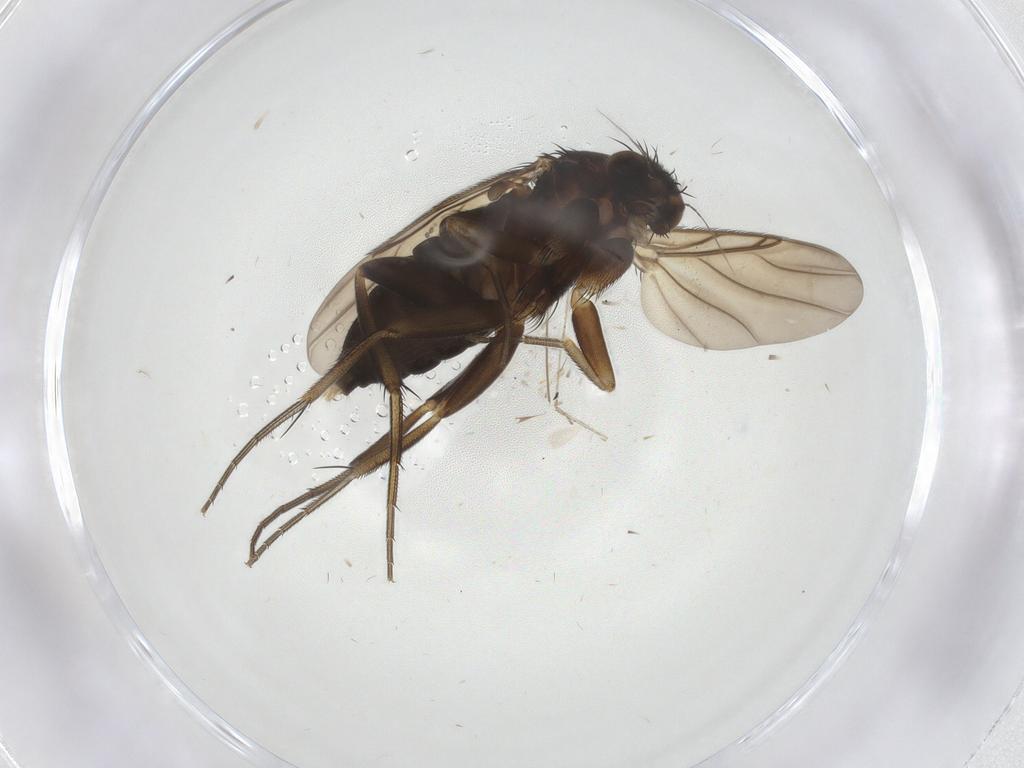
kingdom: Animalia
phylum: Arthropoda
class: Insecta
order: Diptera
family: Phoridae
